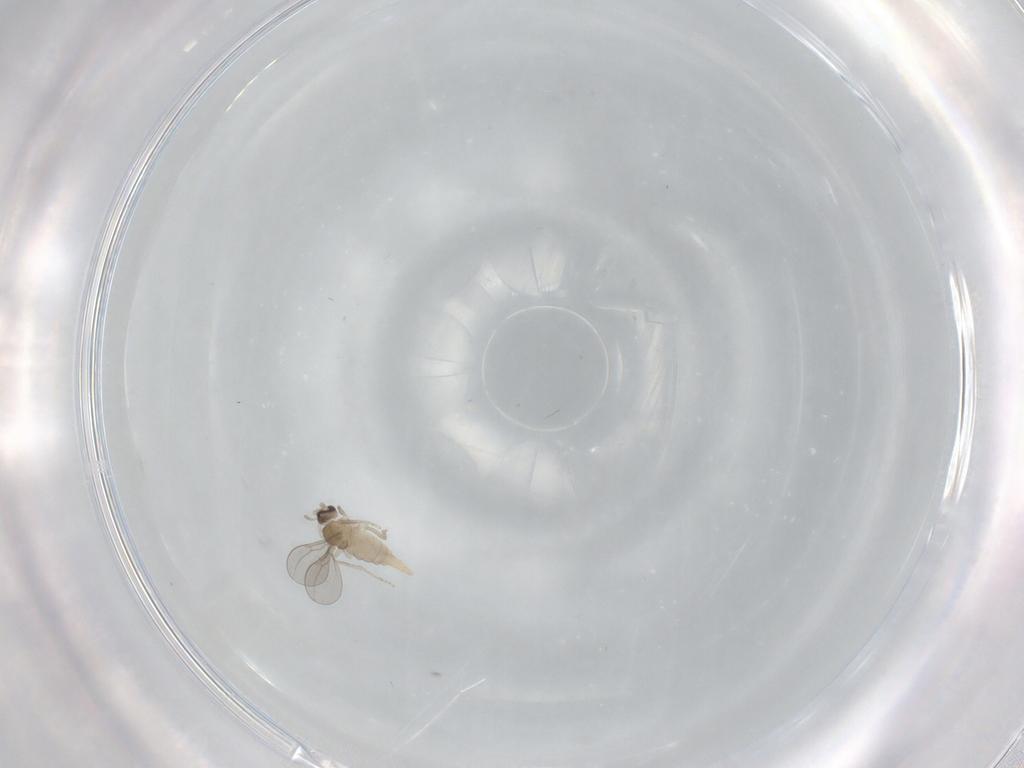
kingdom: Animalia
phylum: Arthropoda
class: Insecta
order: Diptera
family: Cecidomyiidae
